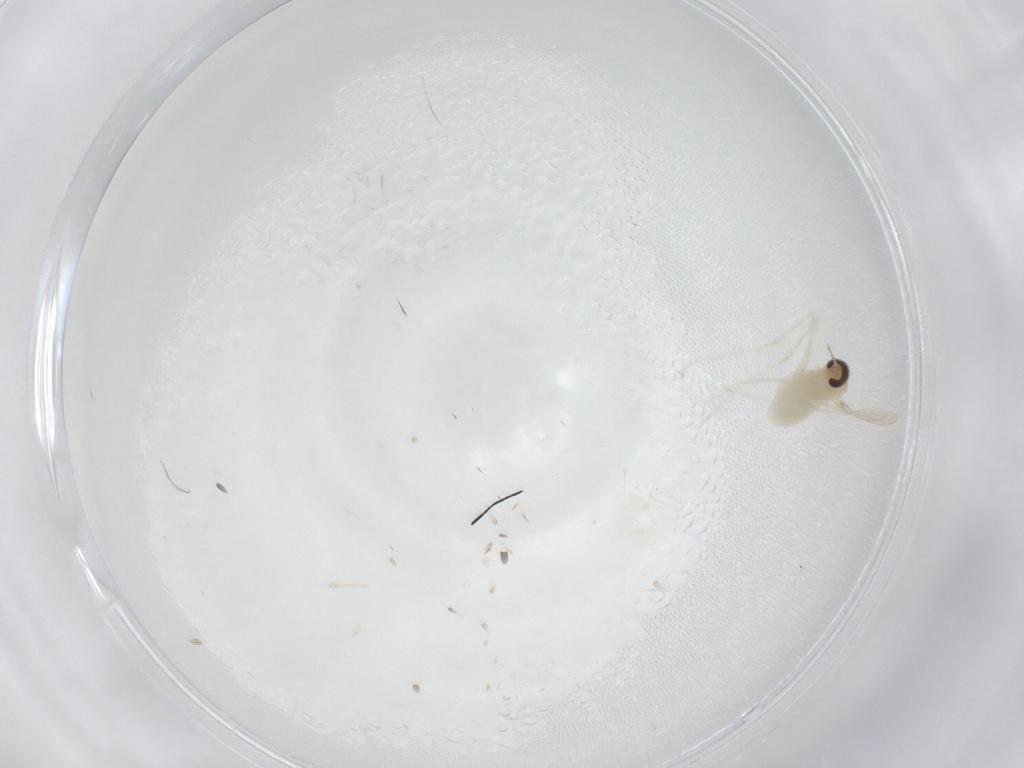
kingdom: Animalia
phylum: Arthropoda
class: Insecta
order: Diptera
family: Cecidomyiidae
